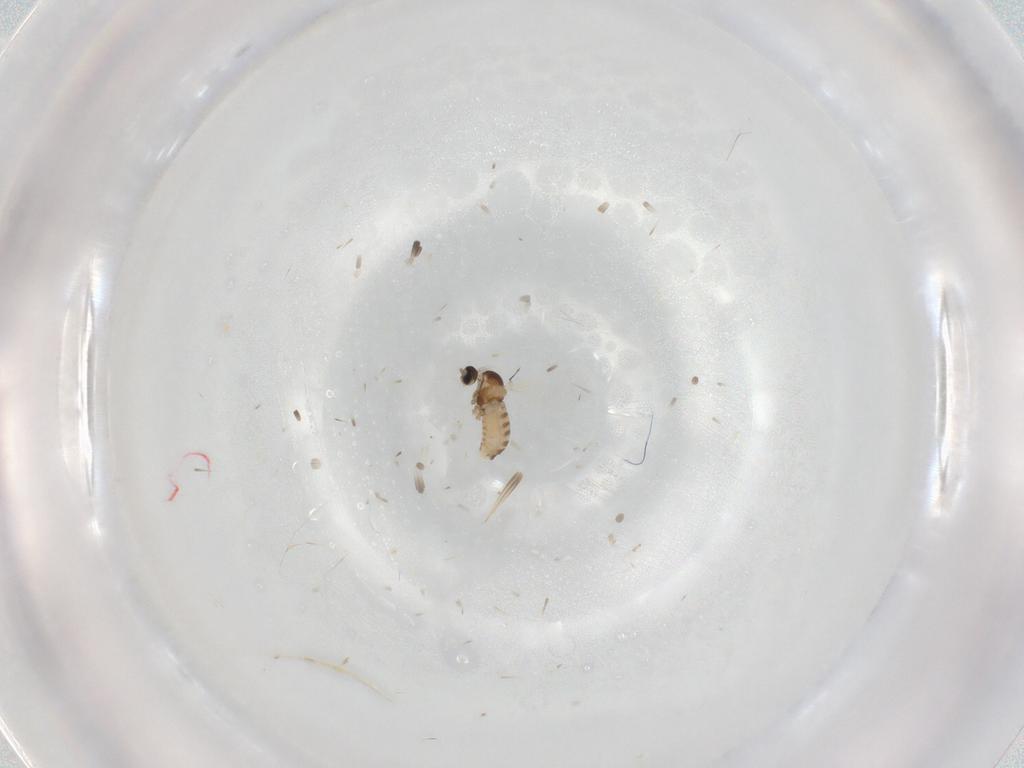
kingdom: Animalia
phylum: Arthropoda
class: Insecta
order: Diptera
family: Cecidomyiidae
